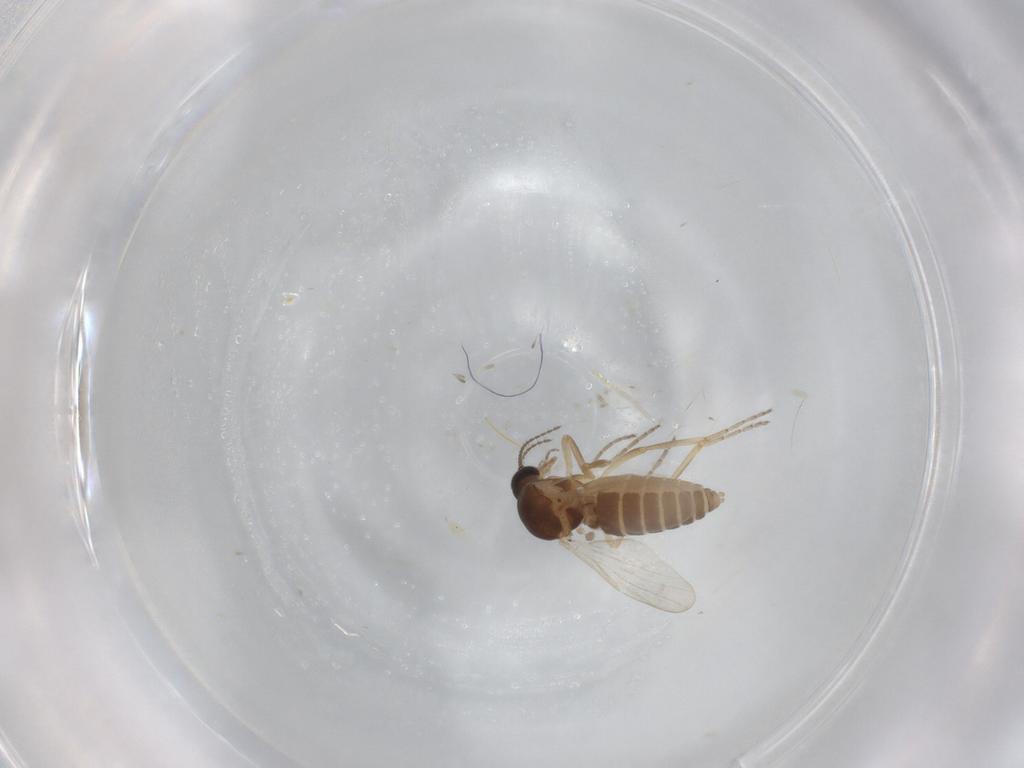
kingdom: Animalia
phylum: Arthropoda
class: Insecta
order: Diptera
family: Ceratopogonidae
